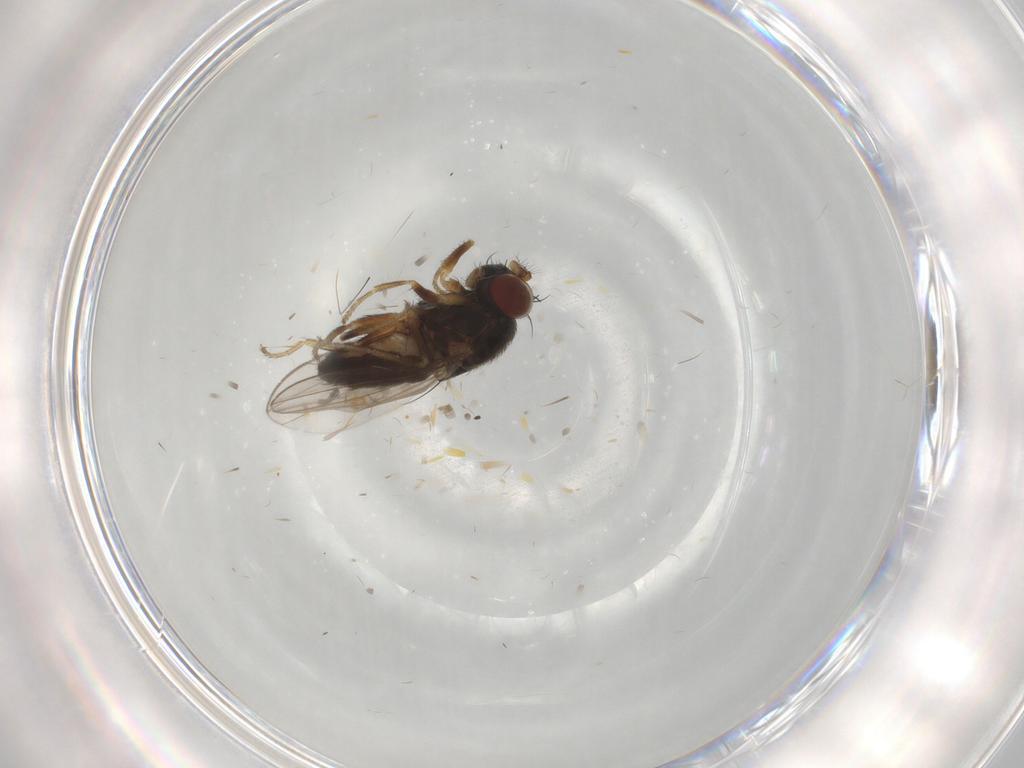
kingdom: Animalia
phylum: Arthropoda
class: Insecta
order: Diptera
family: Ephydridae
